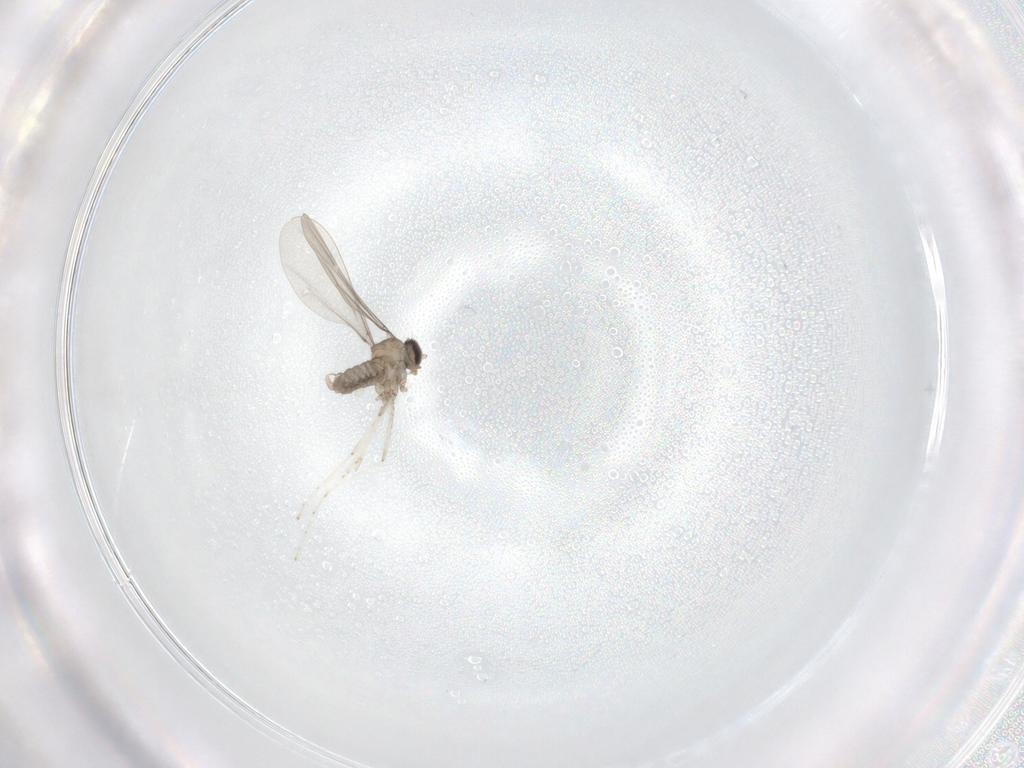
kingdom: Animalia
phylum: Arthropoda
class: Insecta
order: Diptera
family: Cecidomyiidae
